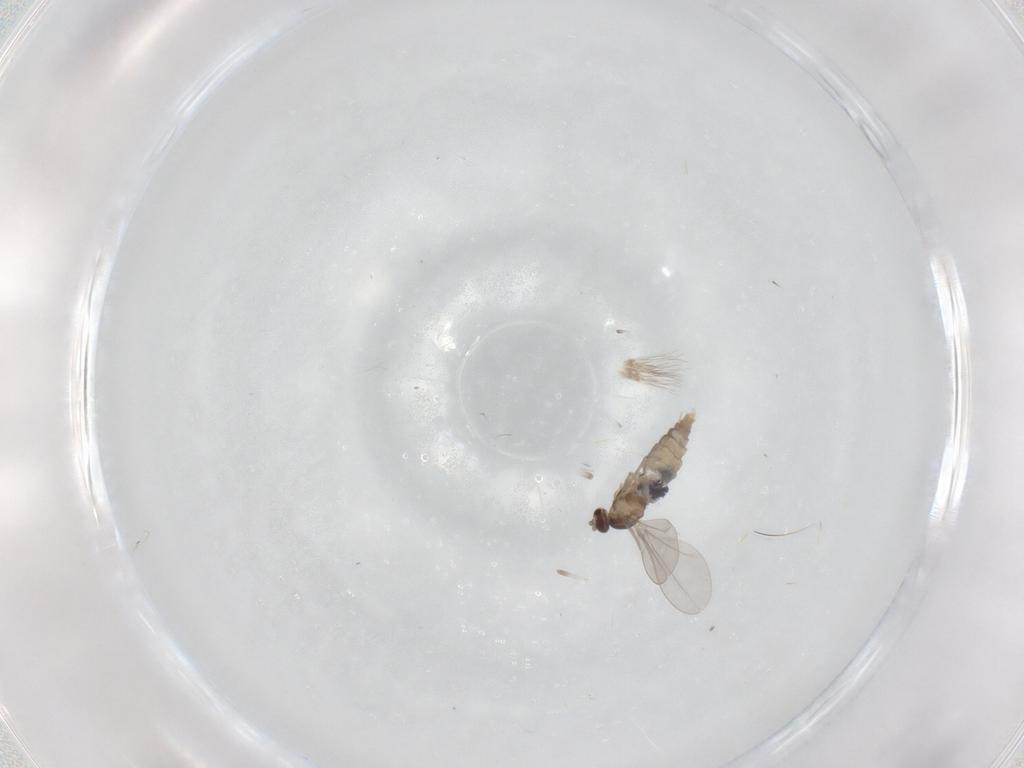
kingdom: Animalia
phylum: Arthropoda
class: Insecta
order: Diptera
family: Cecidomyiidae
